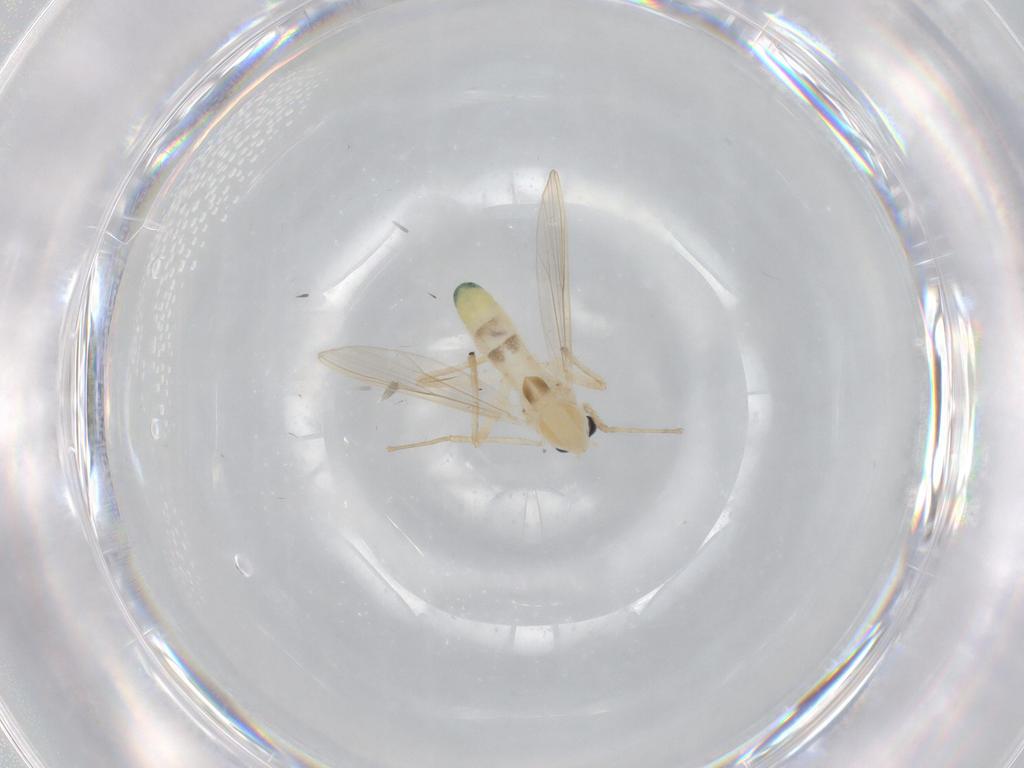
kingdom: Animalia
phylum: Arthropoda
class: Insecta
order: Diptera
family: Chironomidae
